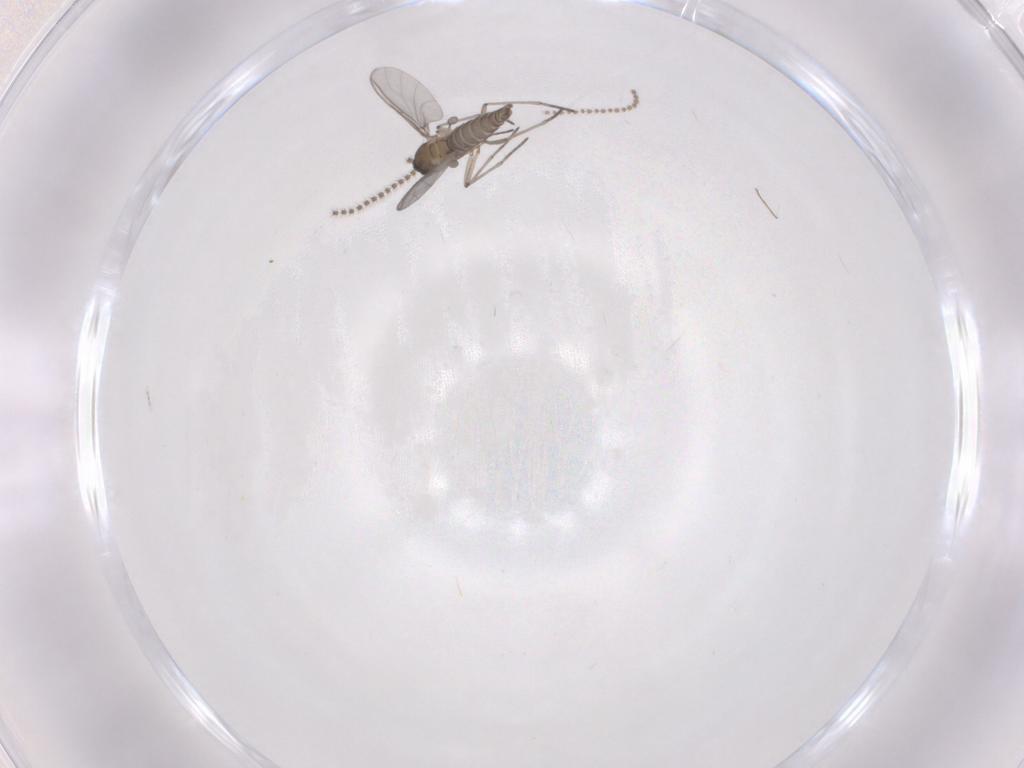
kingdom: Animalia
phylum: Arthropoda
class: Insecta
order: Diptera
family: Cecidomyiidae
